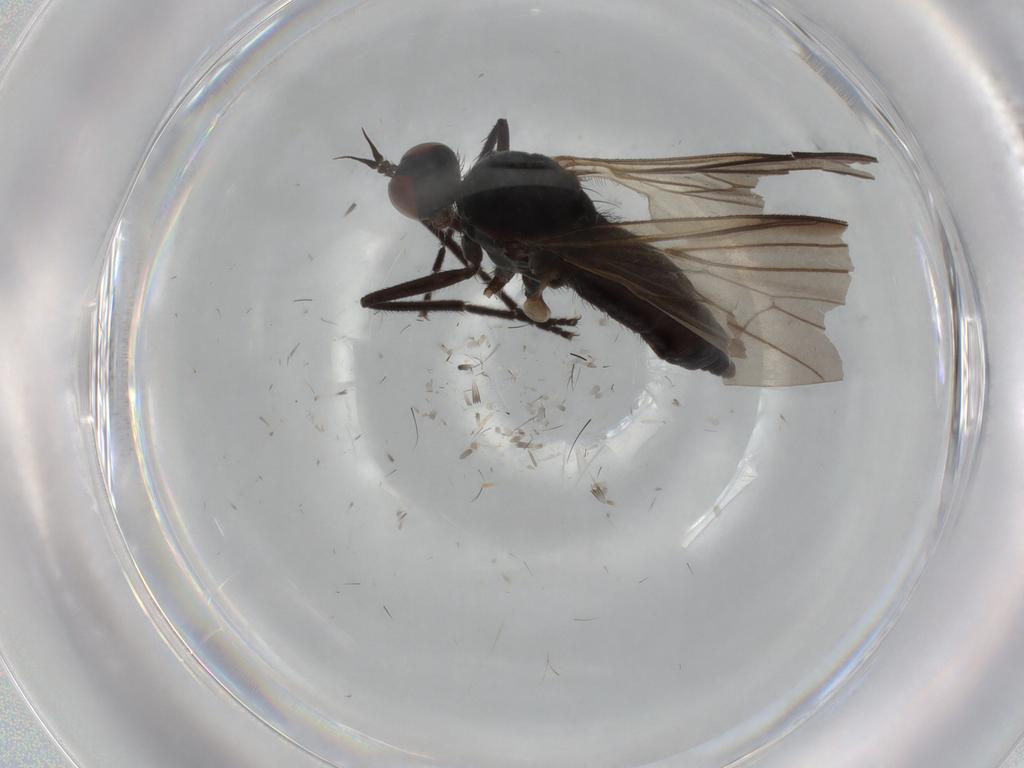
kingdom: Animalia
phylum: Arthropoda
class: Insecta
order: Diptera
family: Empididae
